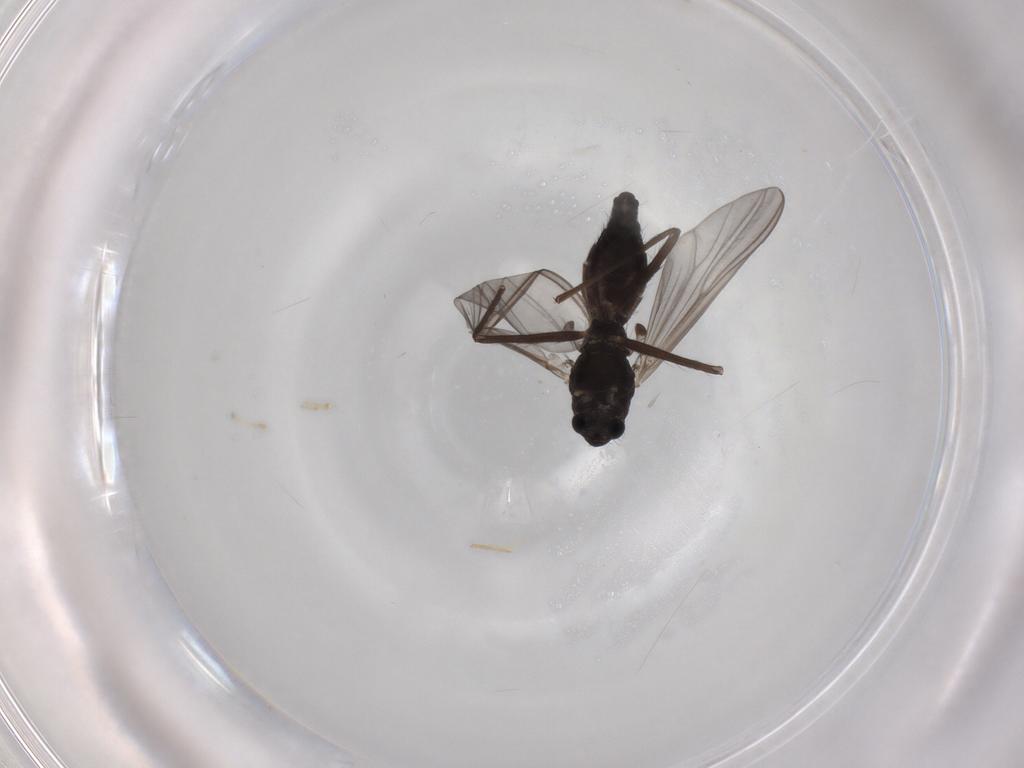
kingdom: Animalia
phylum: Arthropoda
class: Insecta
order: Diptera
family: Chironomidae
